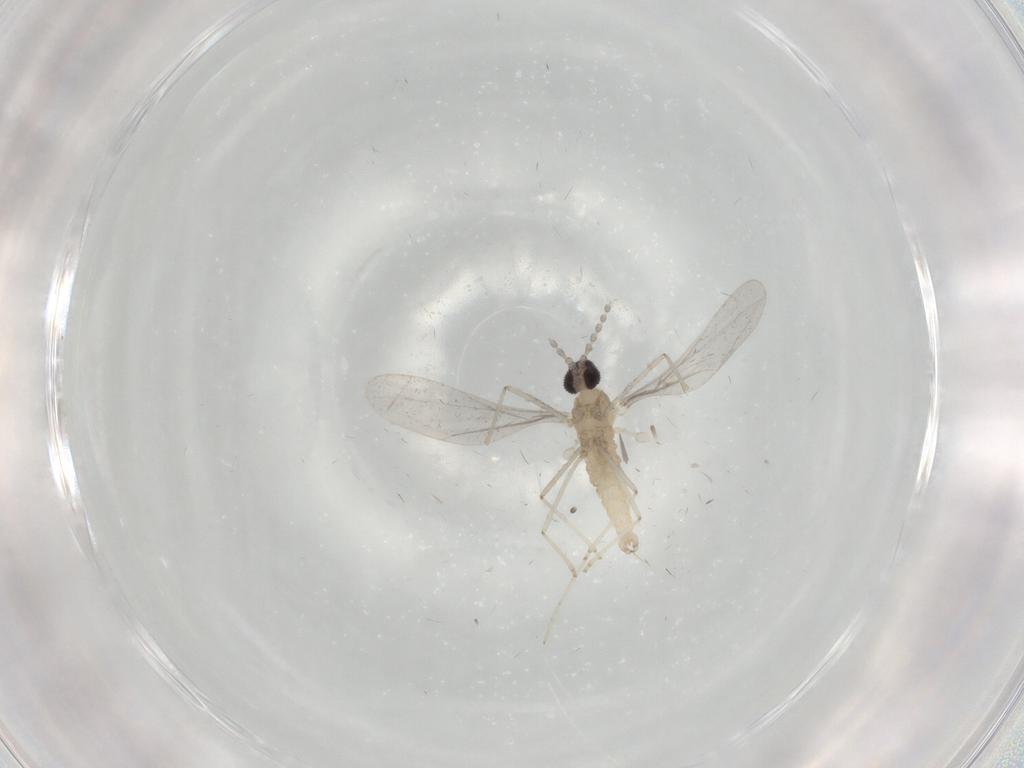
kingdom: Animalia
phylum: Arthropoda
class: Insecta
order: Diptera
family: Cecidomyiidae
